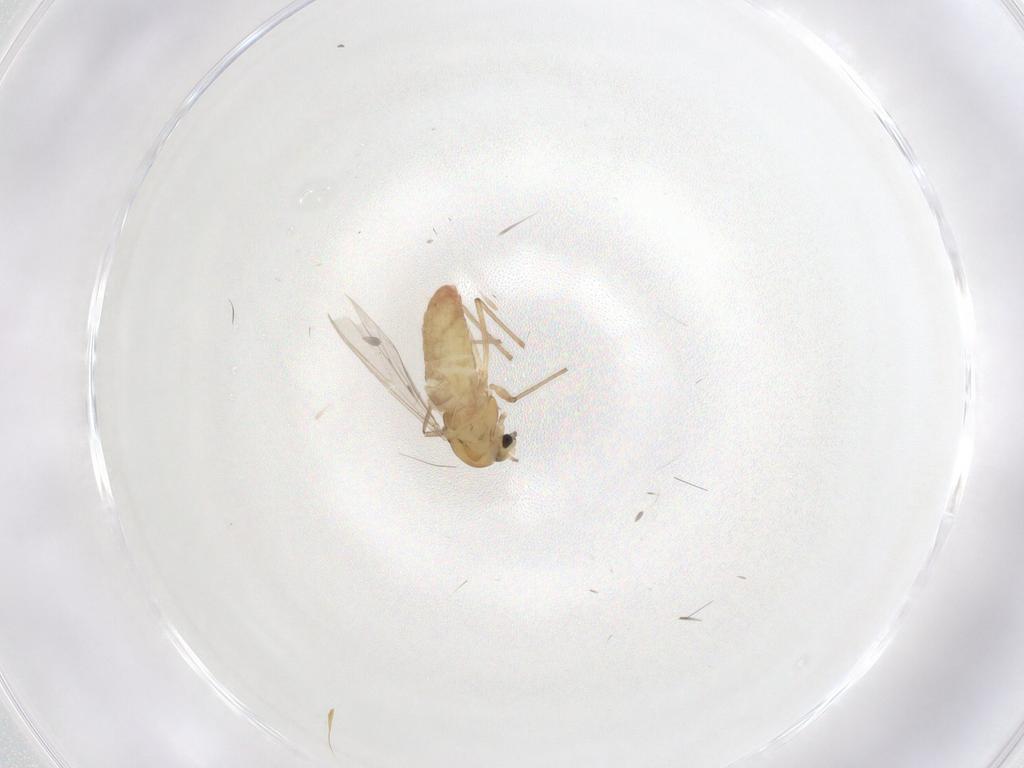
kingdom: Animalia
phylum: Arthropoda
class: Insecta
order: Diptera
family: Chironomidae
